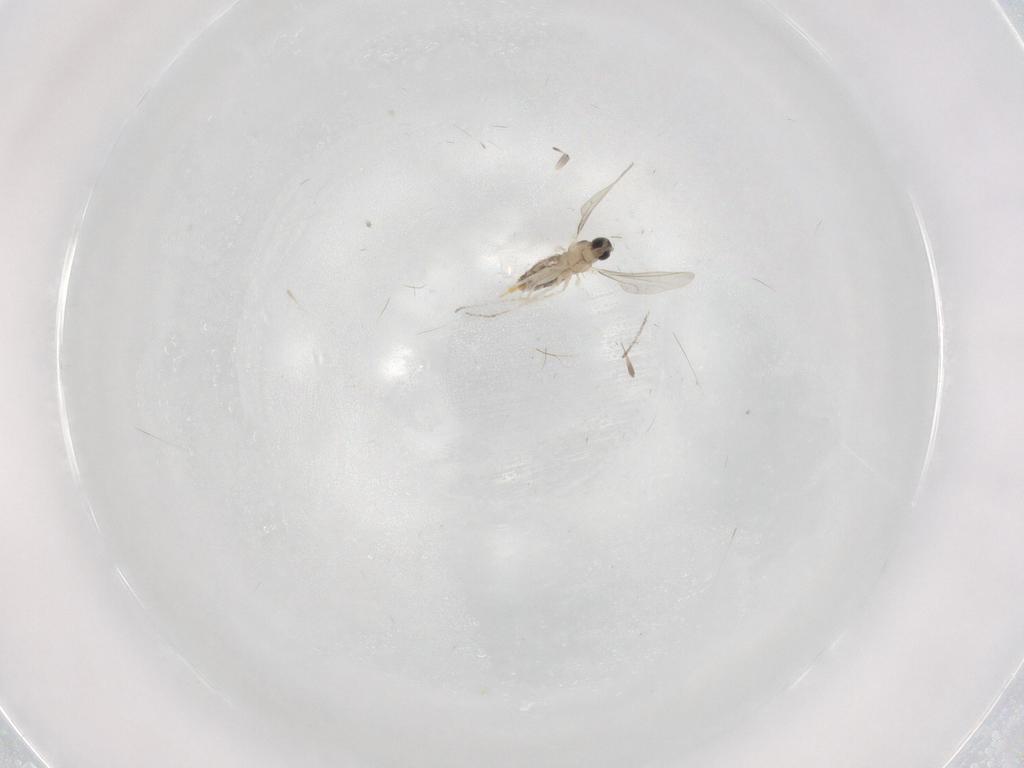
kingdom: Animalia
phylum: Arthropoda
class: Insecta
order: Diptera
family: Cecidomyiidae
